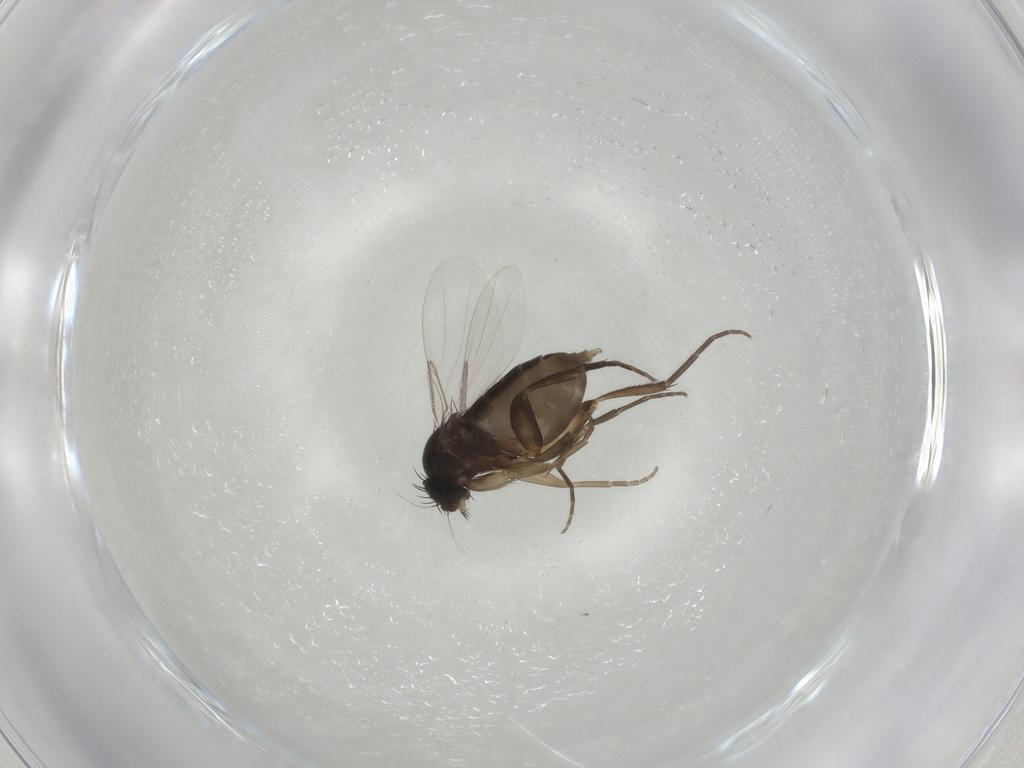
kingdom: Animalia
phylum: Arthropoda
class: Insecta
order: Diptera
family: Phoridae
